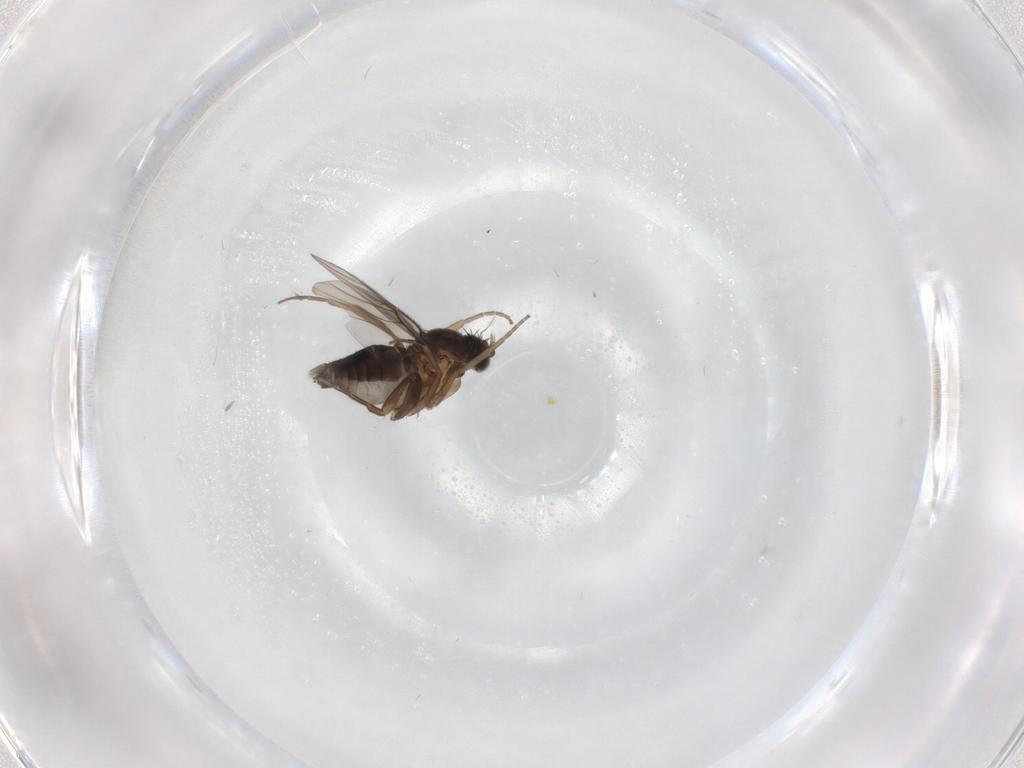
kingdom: Animalia
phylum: Arthropoda
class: Insecta
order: Diptera
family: Phoridae
